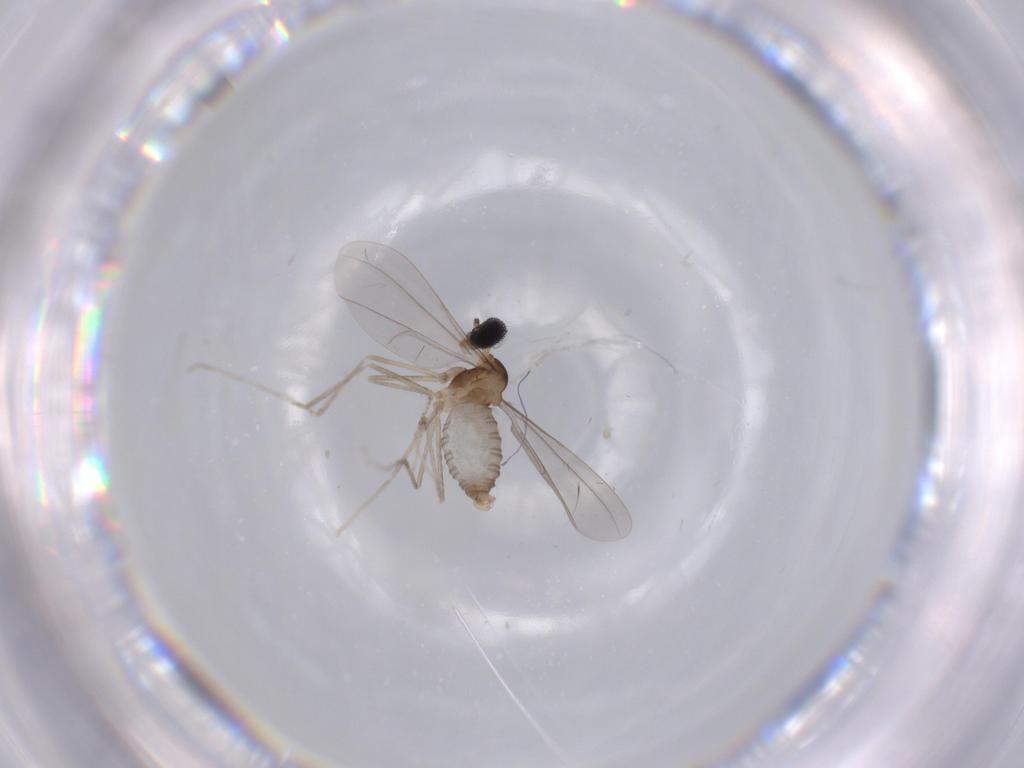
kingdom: Animalia
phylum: Arthropoda
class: Insecta
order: Diptera
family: Cecidomyiidae
